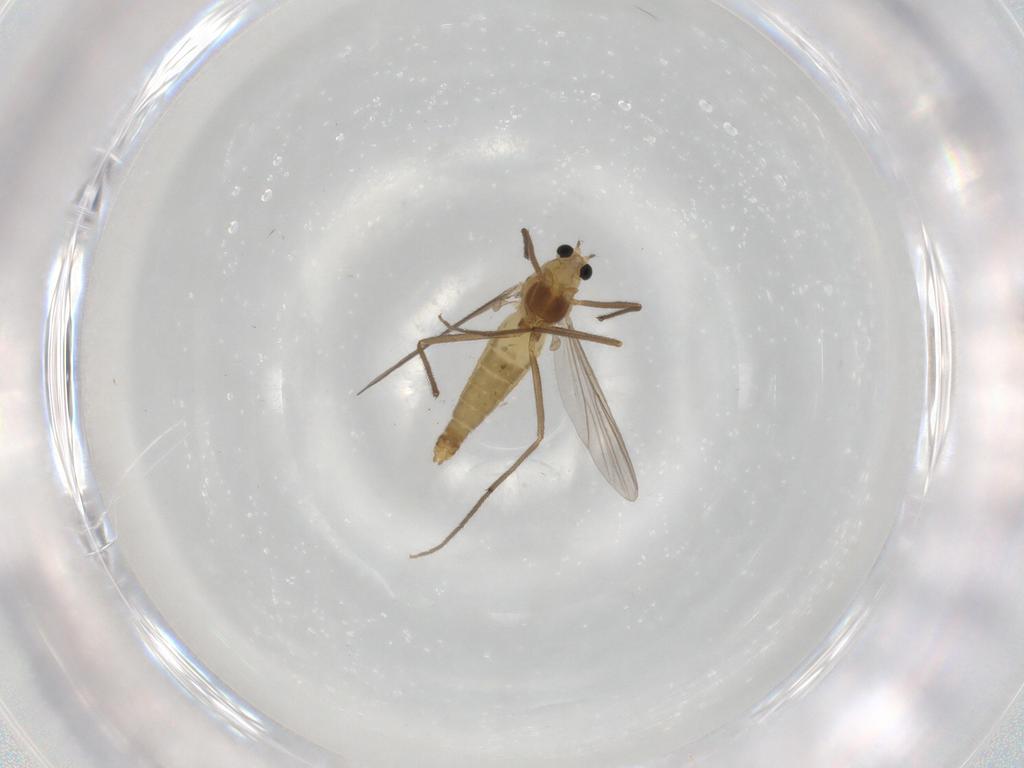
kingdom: Animalia
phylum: Arthropoda
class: Insecta
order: Diptera
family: Chironomidae
